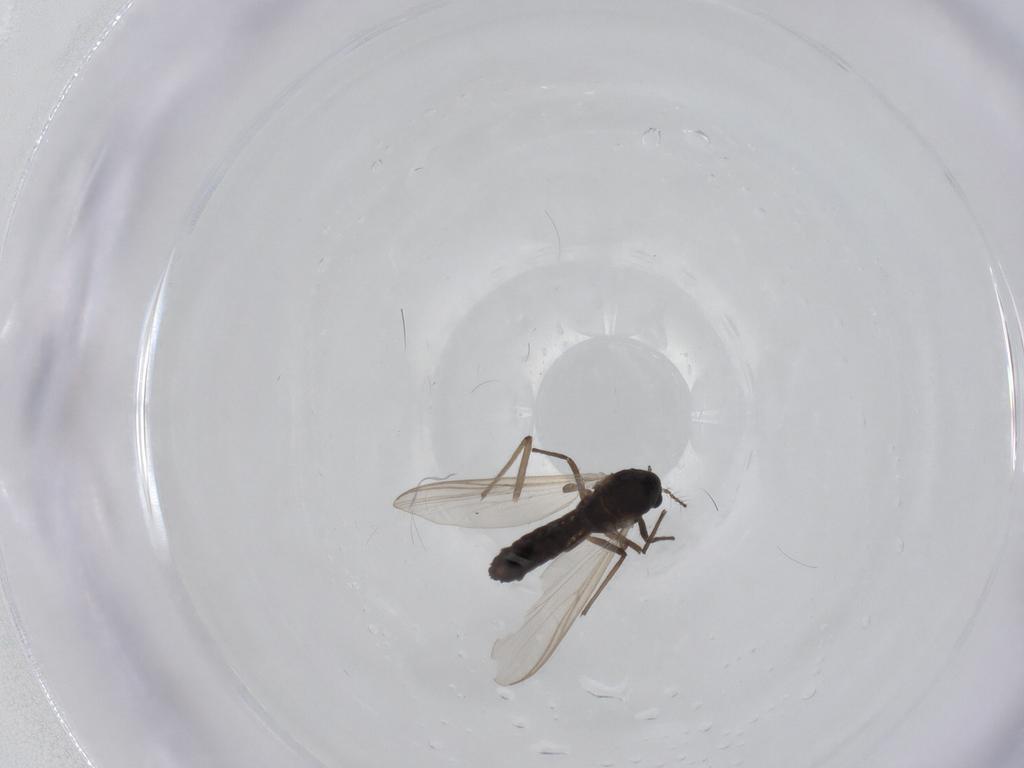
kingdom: Animalia
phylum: Arthropoda
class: Insecta
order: Diptera
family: Chironomidae
